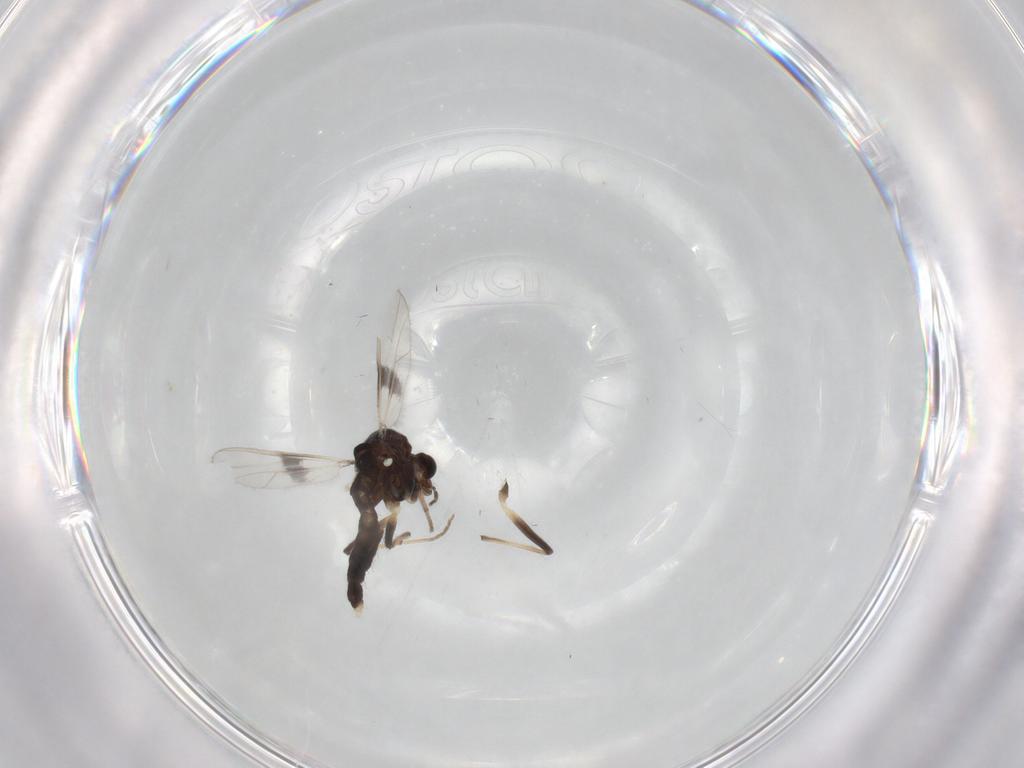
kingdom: Animalia
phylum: Arthropoda
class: Insecta
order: Diptera
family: Chironomidae
